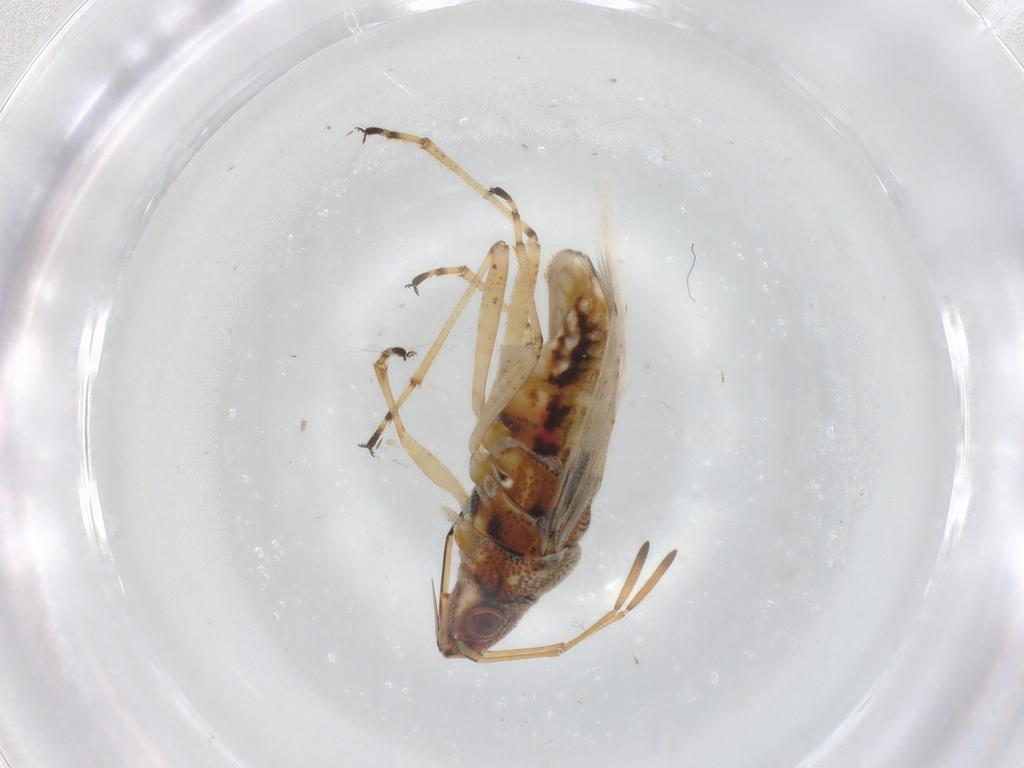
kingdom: Animalia
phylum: Arthropoda
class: Insecta
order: Hemiptera
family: Lygaeidae
